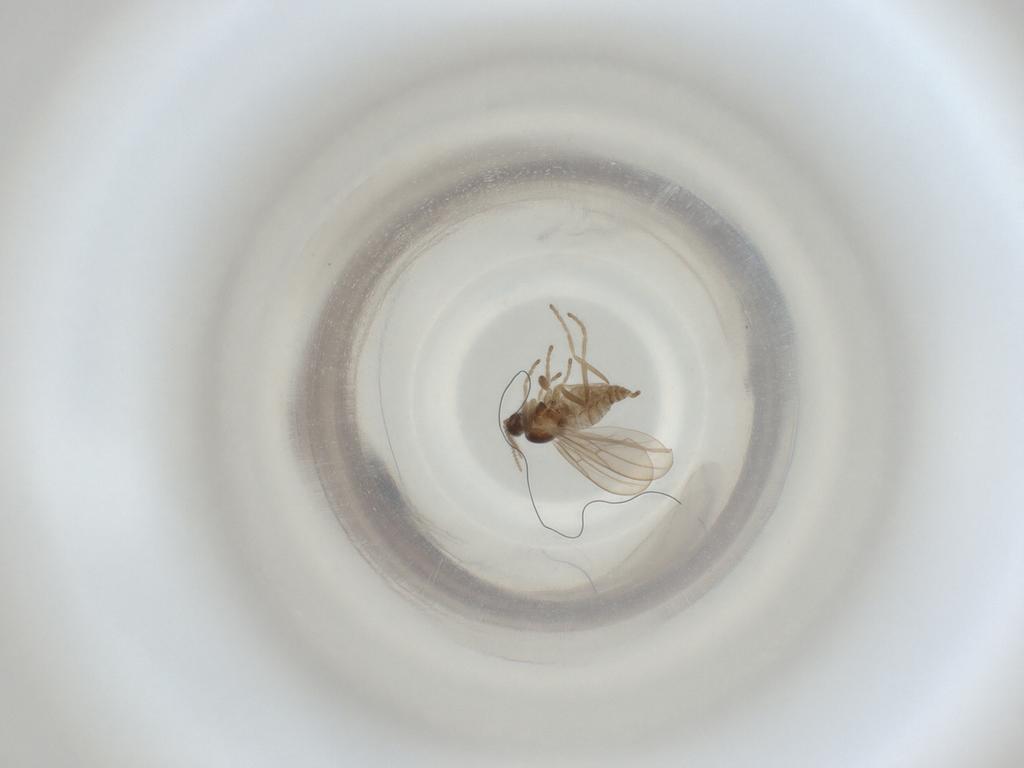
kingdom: Animalia
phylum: Arthropoda
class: Insecta
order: Diptera
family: Cecidomyiidae
